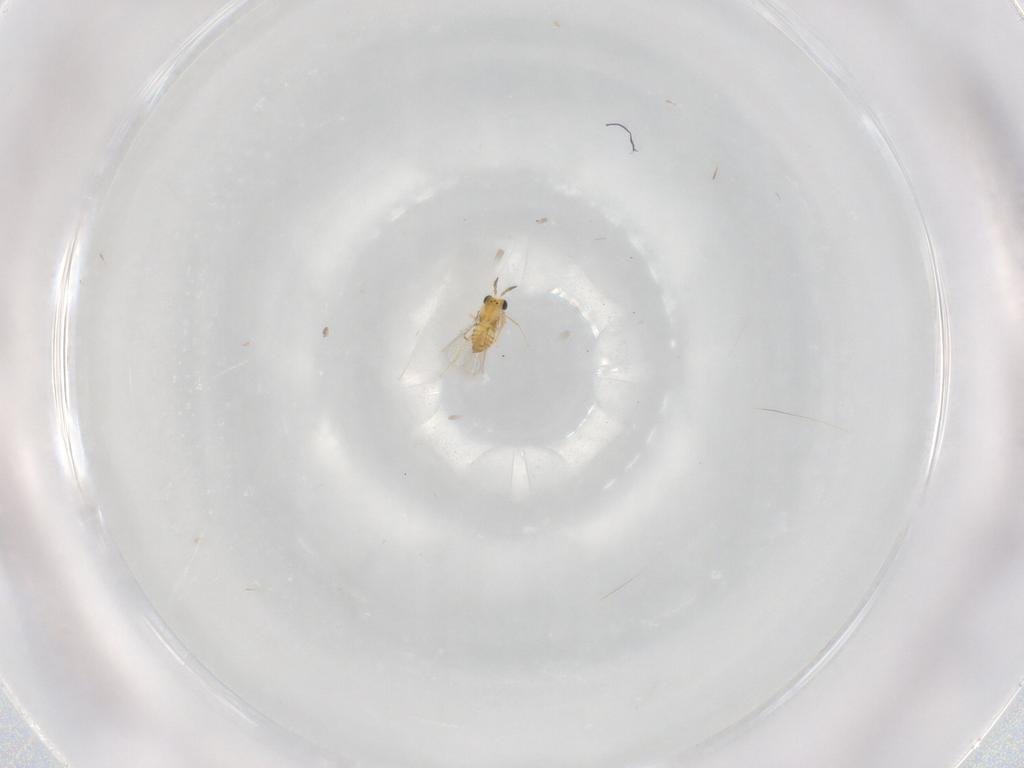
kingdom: Animalia
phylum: Arthropoda
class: Insecta
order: Hymenoptera
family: Trichogrammatidae
